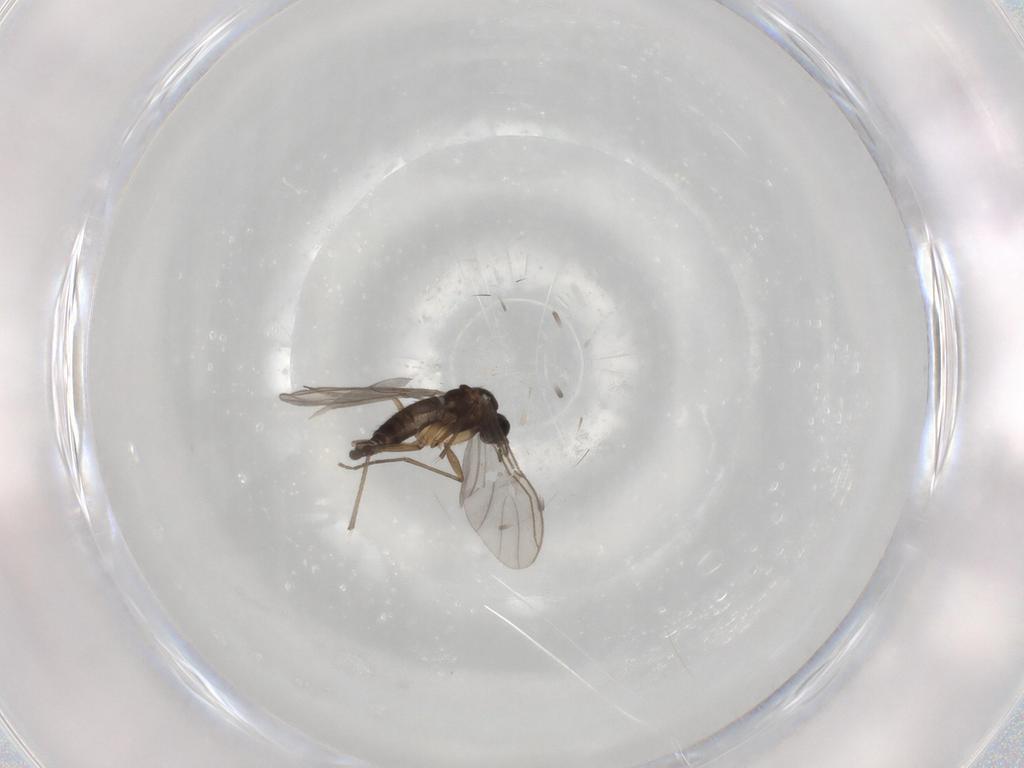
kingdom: Animalia
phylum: Arthropoda
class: Insecta
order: Diptera
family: Sciaridae
